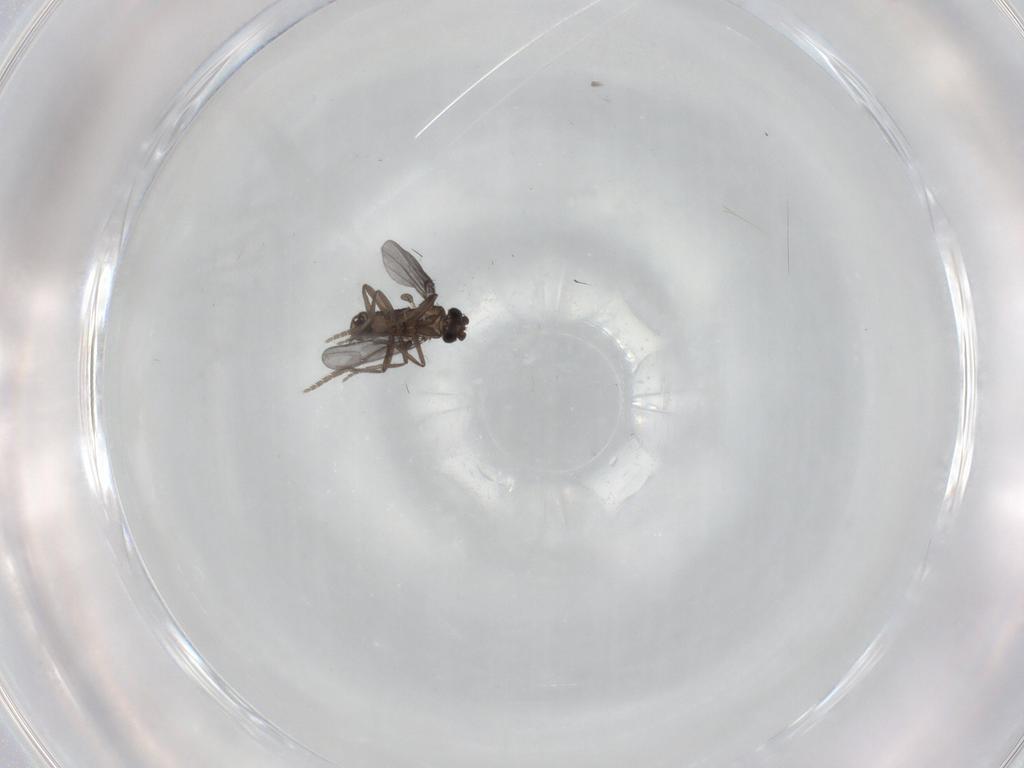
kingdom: Animalia
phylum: Arthropoda
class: Insecta
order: Diptera
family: Phoridae
